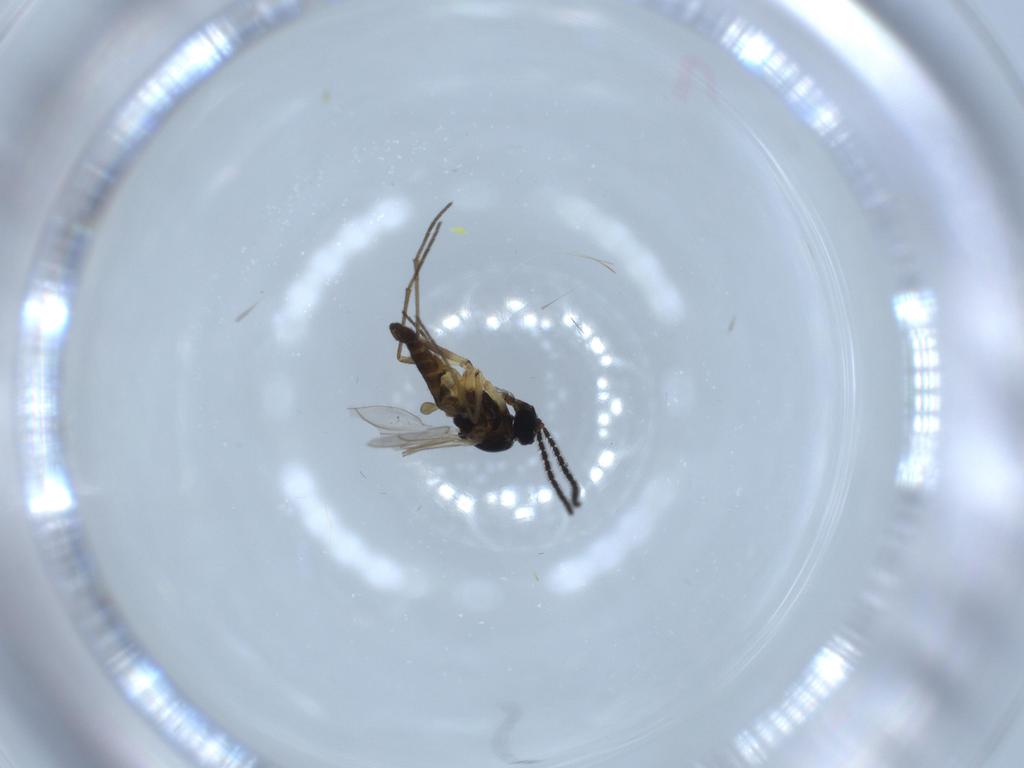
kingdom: Animalia
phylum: Arthropoda
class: Insecta
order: Diptera
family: Sciaridae
